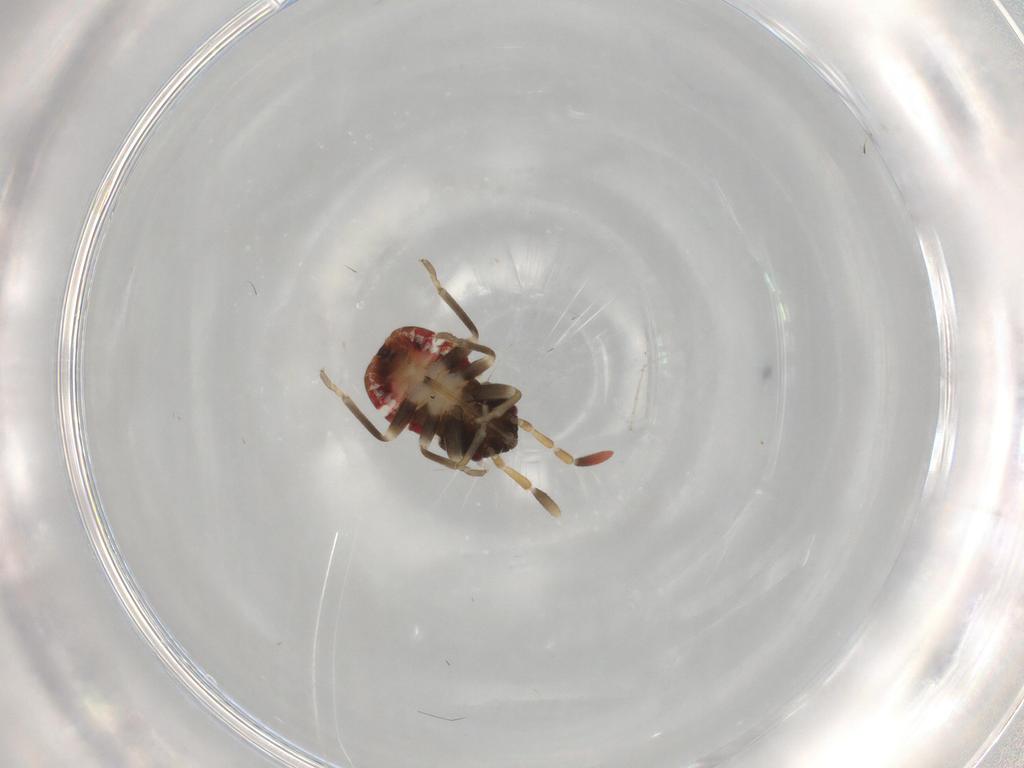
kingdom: Animalia
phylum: Arthropoda
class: Insecta
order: Hemiptera
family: Rhyparochromidae
